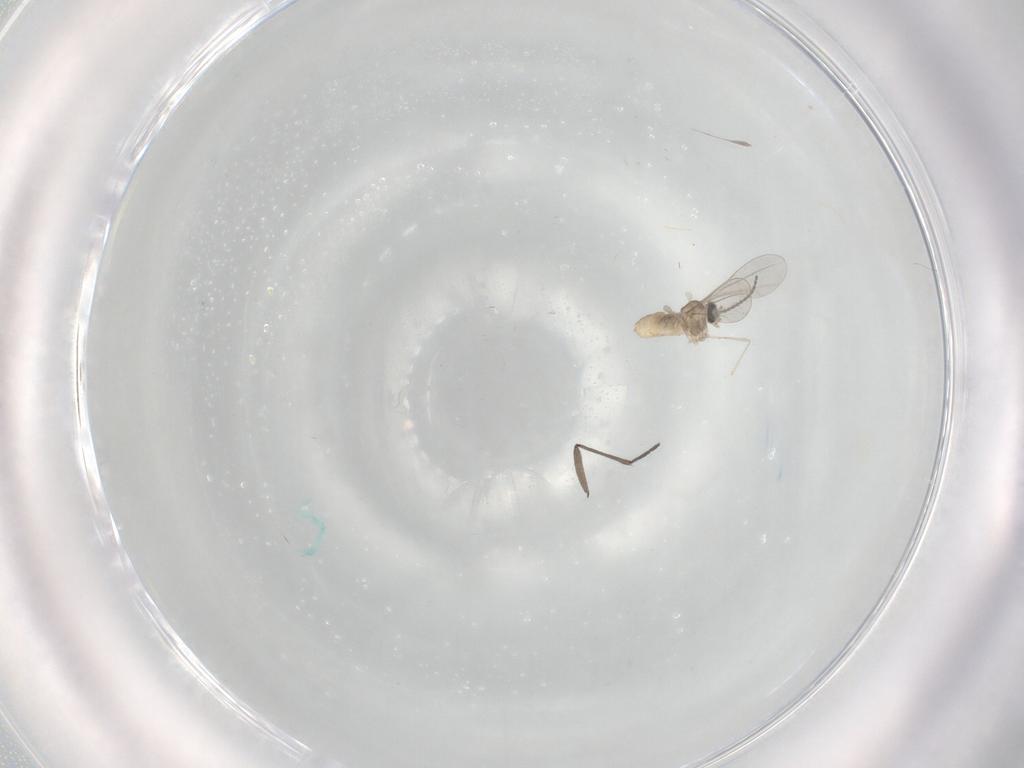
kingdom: Animalia
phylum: Arthropoda
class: Insecta
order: Diptera
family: Sciaridae
